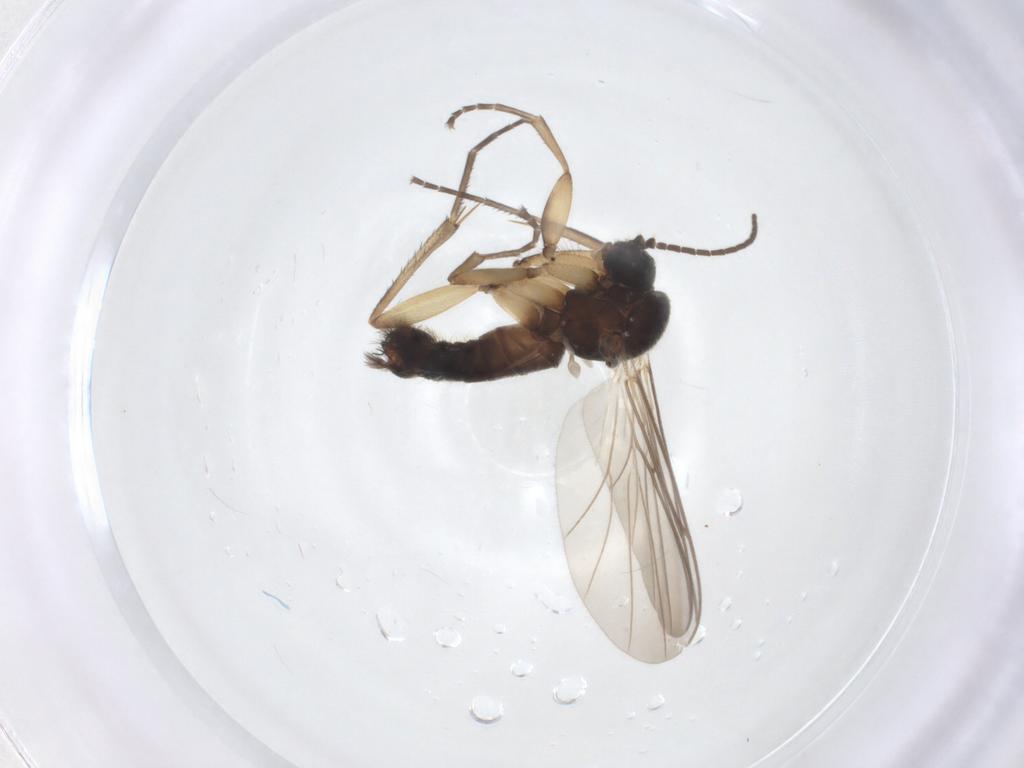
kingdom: Animalia
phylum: Arthropoda
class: Insecta
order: Diptera
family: Mycetophilidae
